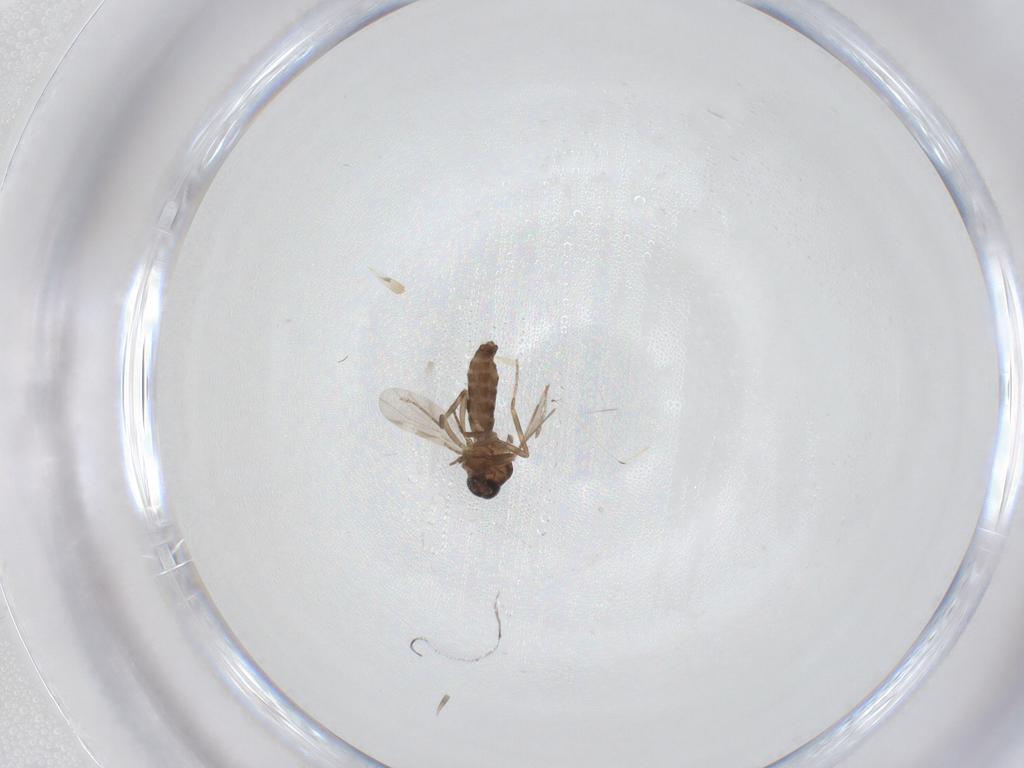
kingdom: Animalia
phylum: Arthropoda
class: Insecta
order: Diptera
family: Ceratopogonidae
